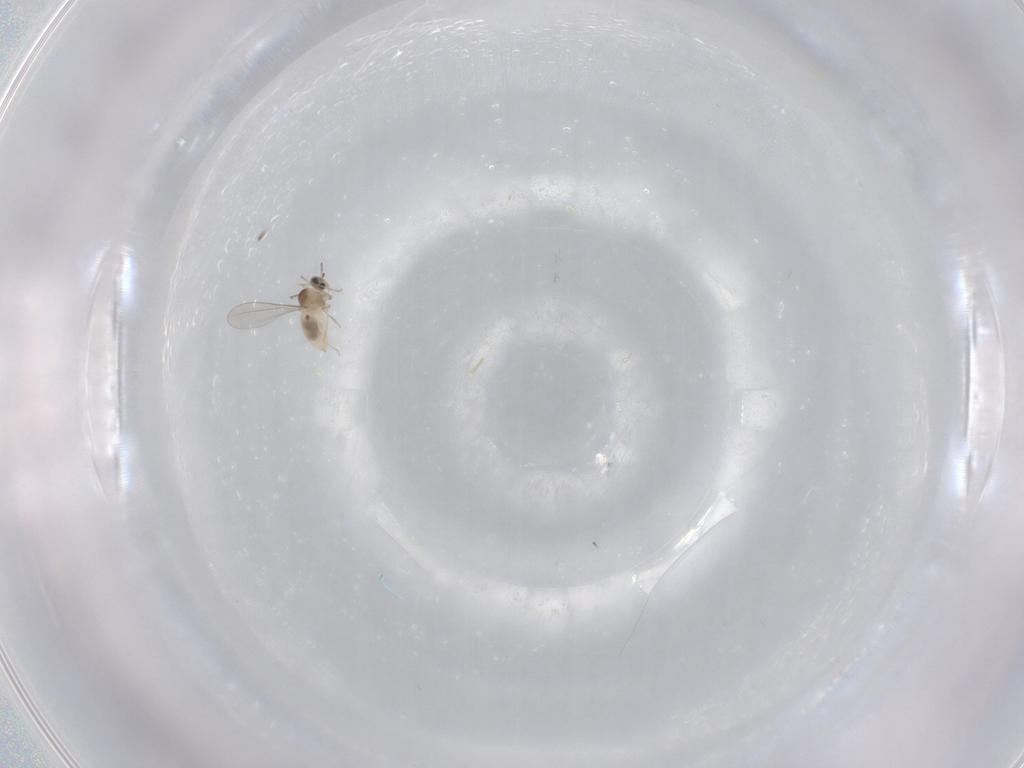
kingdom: Animalia
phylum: Arthropoda
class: Insecta
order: Diptera
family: Cecidomyiidae
